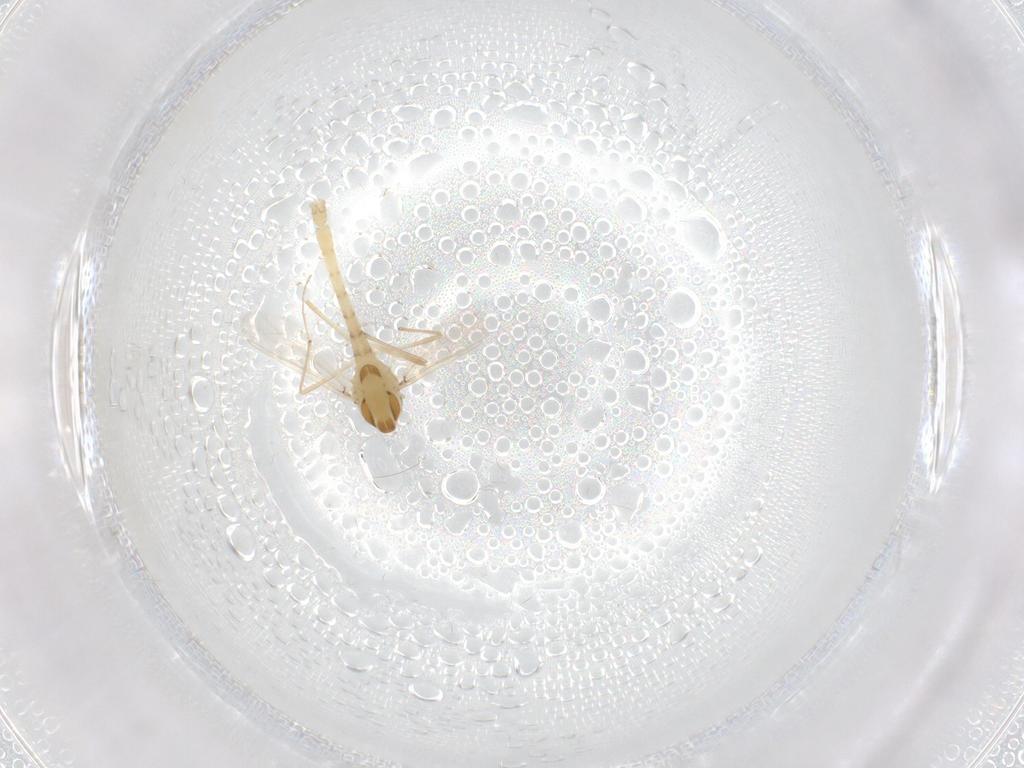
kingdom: Animalia
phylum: Arthropoda
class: Insecta
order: Diptera
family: Chironomidae
